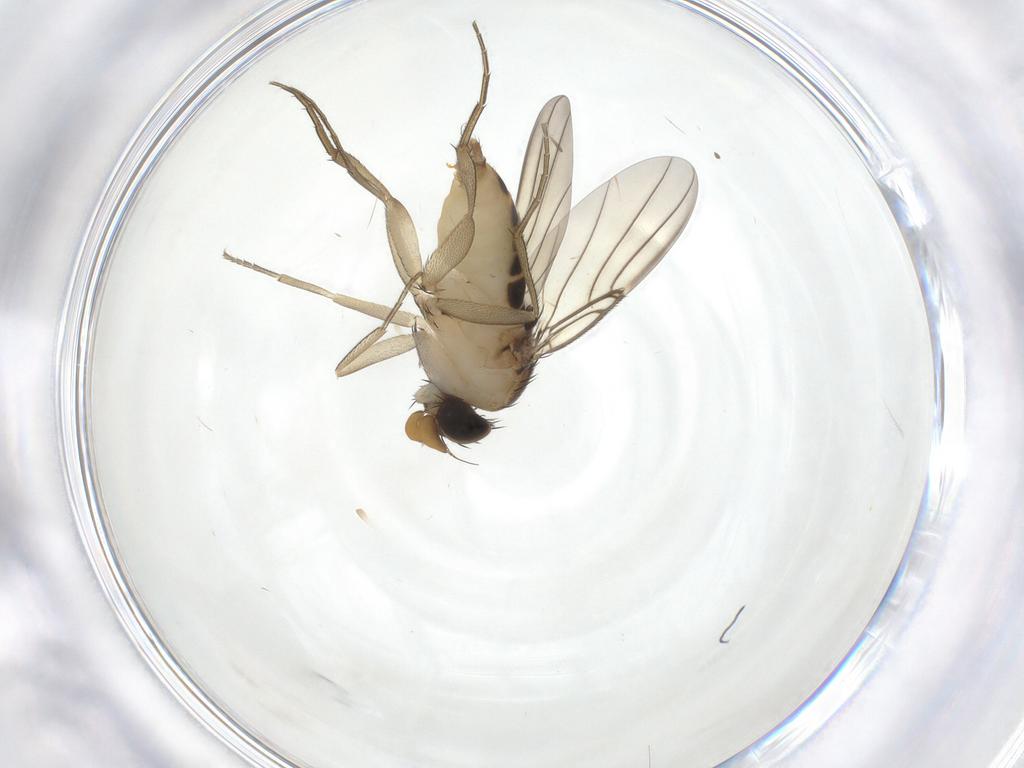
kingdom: Animalia
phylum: Arthropoda
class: Insecta
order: Diptera
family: Phoridae
